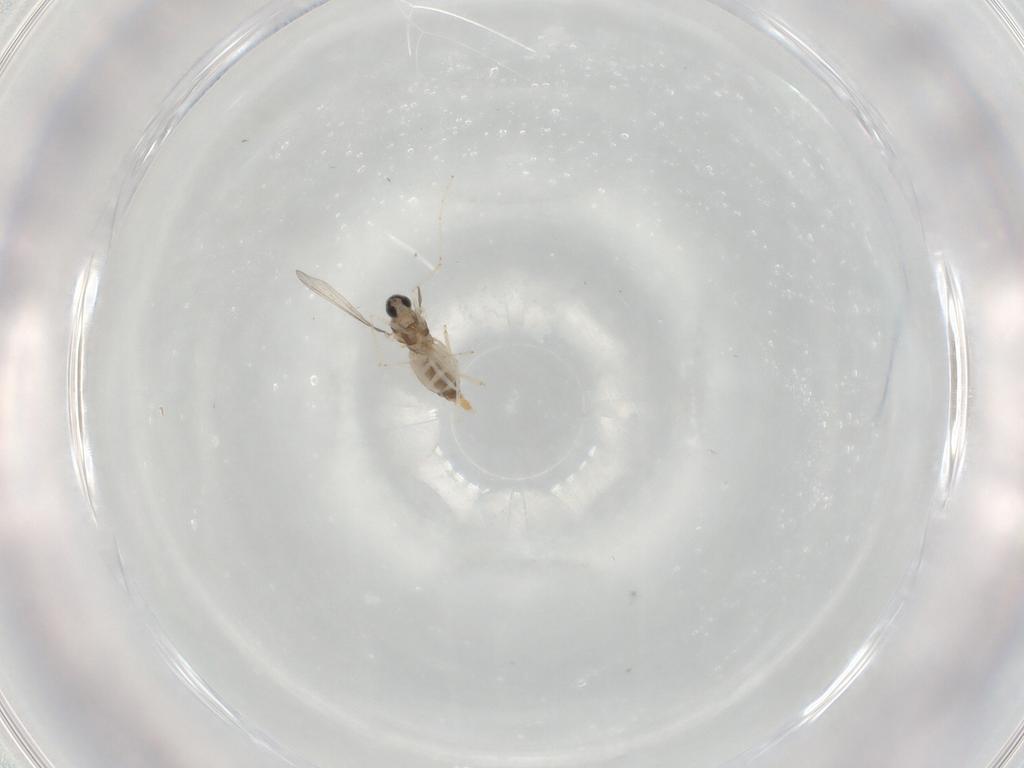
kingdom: Animalia
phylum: Arthropoda
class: Insecta
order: Diptera
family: Cecidomyiidae
